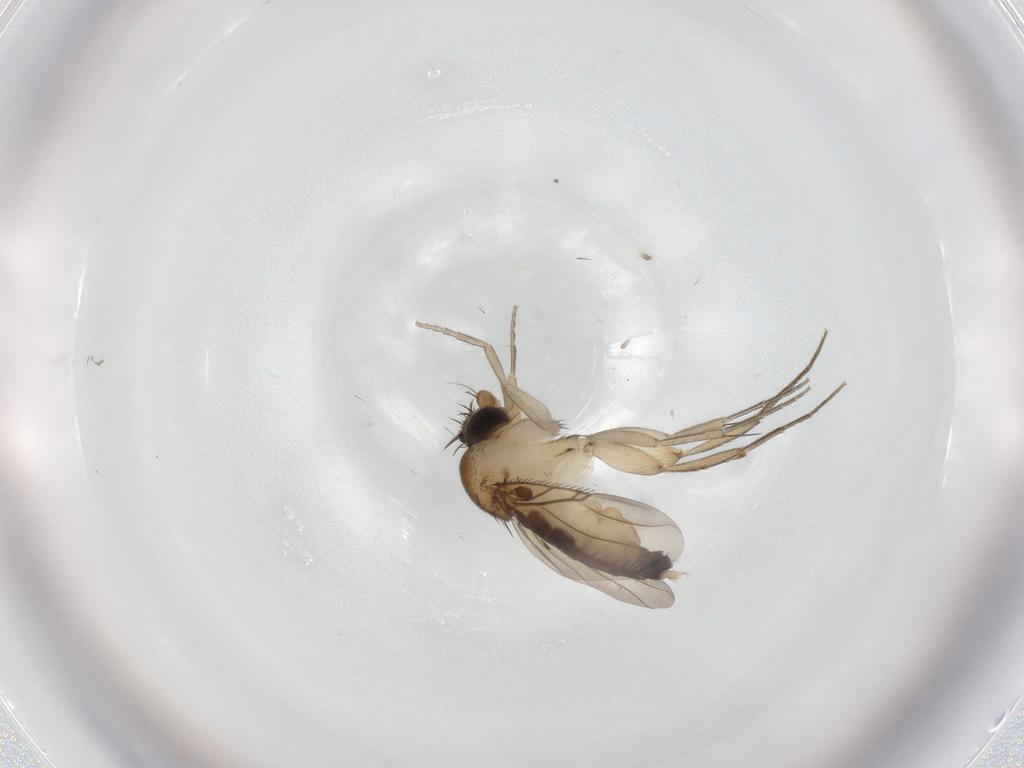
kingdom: Animalia
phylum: Arthropoda
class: Insecta
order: Diptera
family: Phoridae
